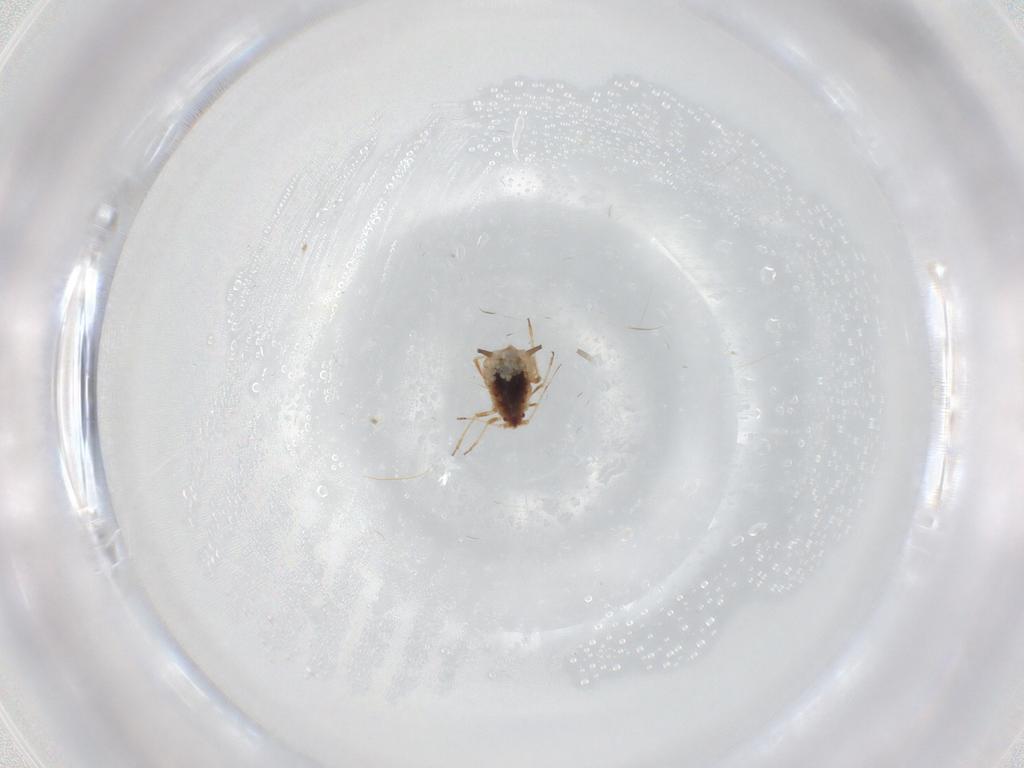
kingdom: Animalia
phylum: Arthropoda
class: Insecta
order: Hemiptera
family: Aphididae
